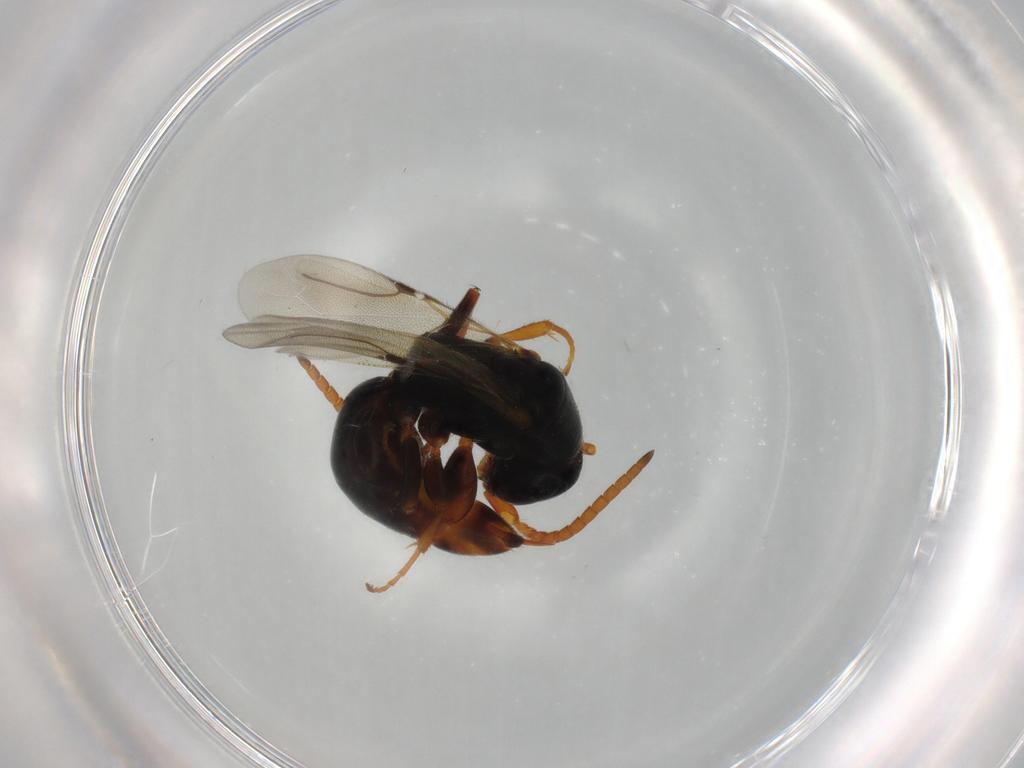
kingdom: Animalia
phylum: Arthropoda
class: Insecta
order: Hymenoptera
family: Bethylidae
